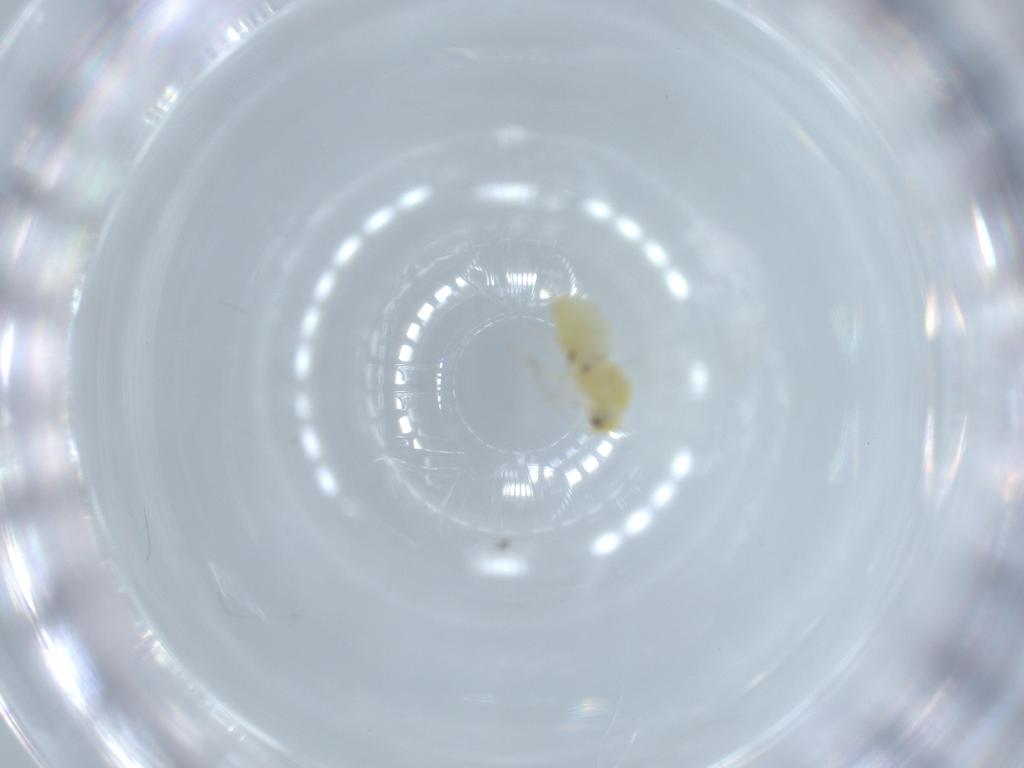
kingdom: Animalia
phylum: Arthropoda
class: Insecta
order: Hemiptera
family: Aleyrodidae
